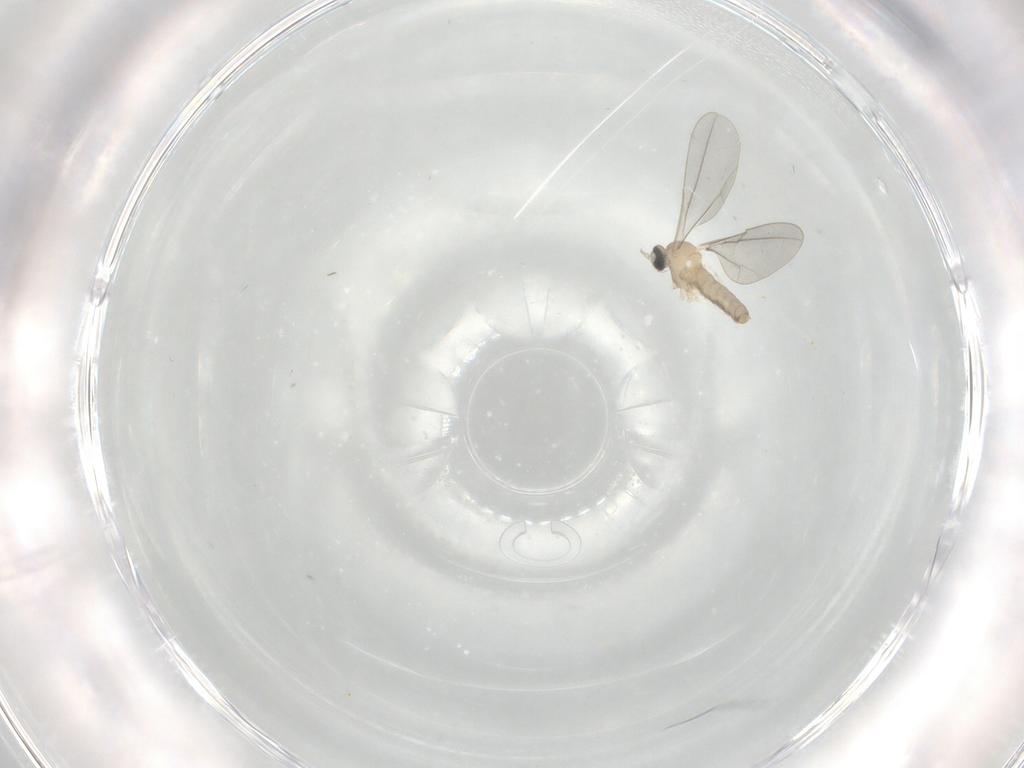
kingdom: Animalia
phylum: Arthropoda
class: Insecta
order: Diptera
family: Cecidomyiidae
